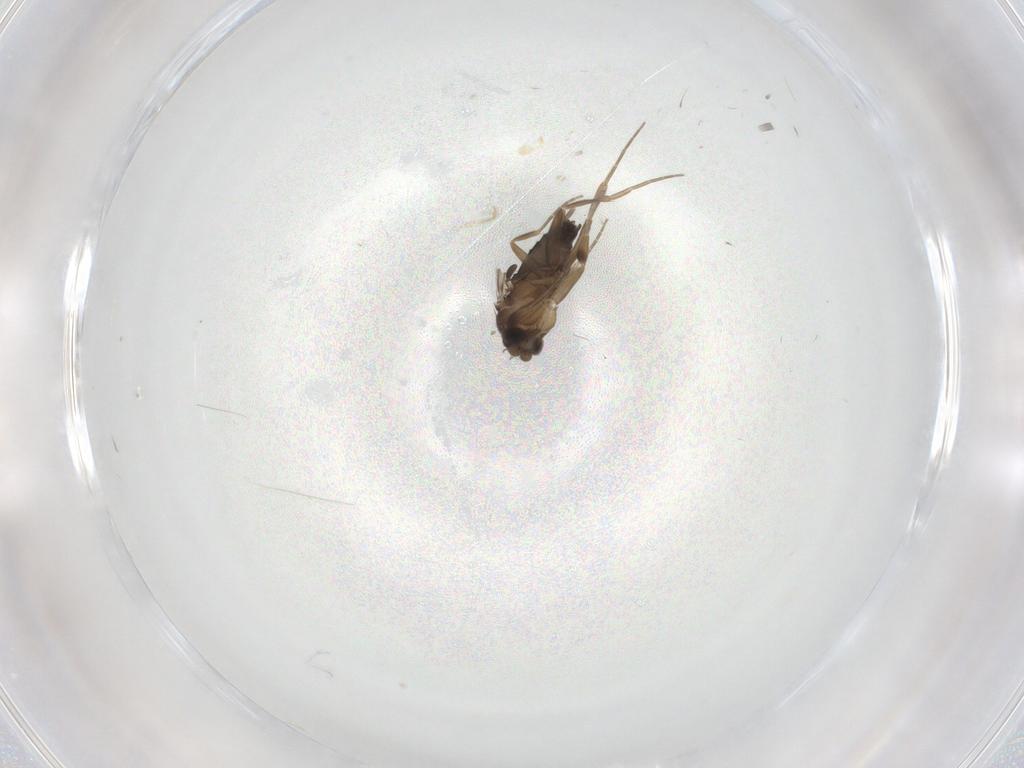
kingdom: Animalia
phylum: Arthropoda
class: Insecta
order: Diptera
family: Phoridae
